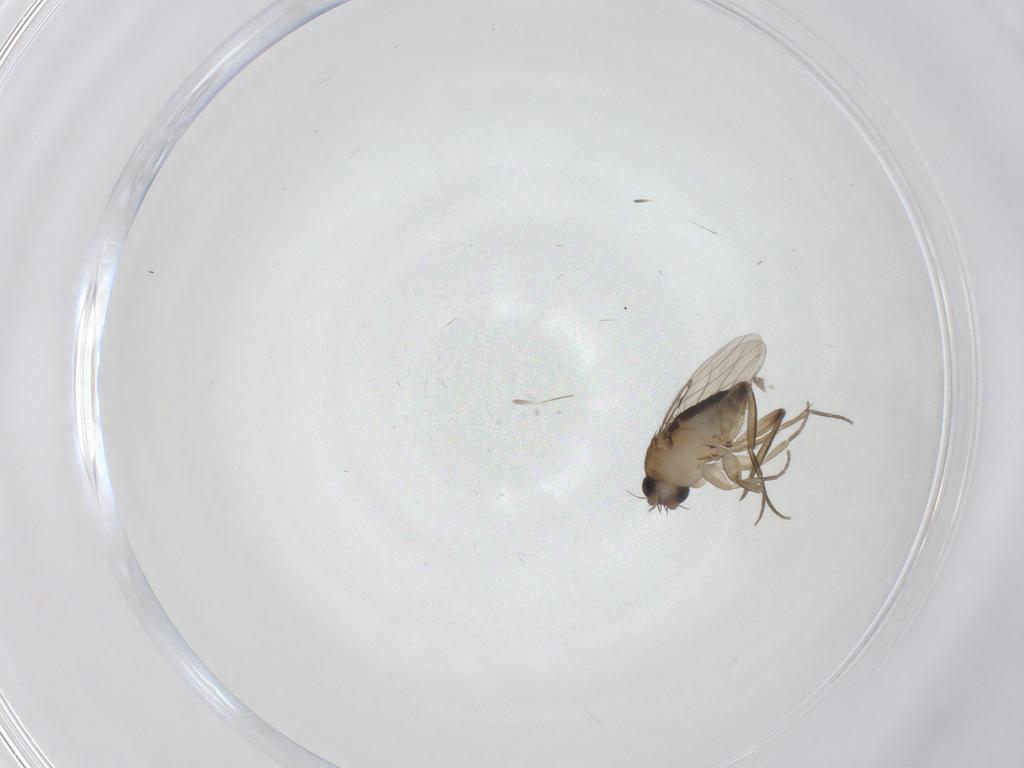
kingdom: Animalia
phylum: Arthropoda
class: Insecta
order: Diptera
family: Phoridae
